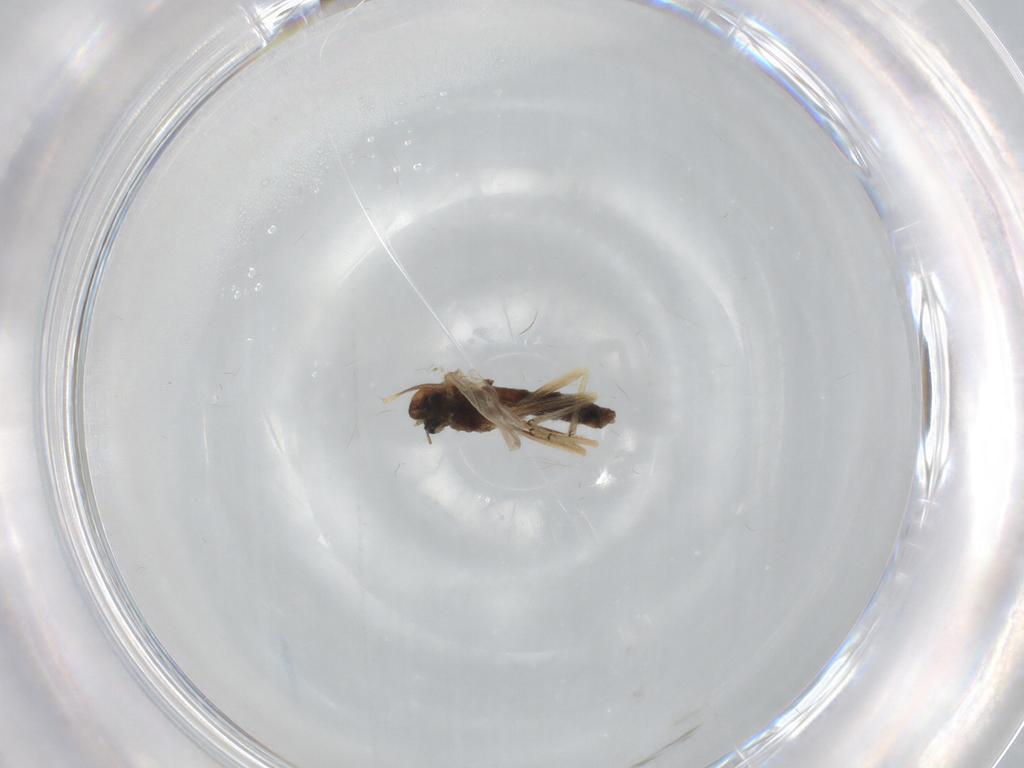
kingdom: Animalia
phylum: Arthropoda
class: Insecta
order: Diptera
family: Chironomidae
